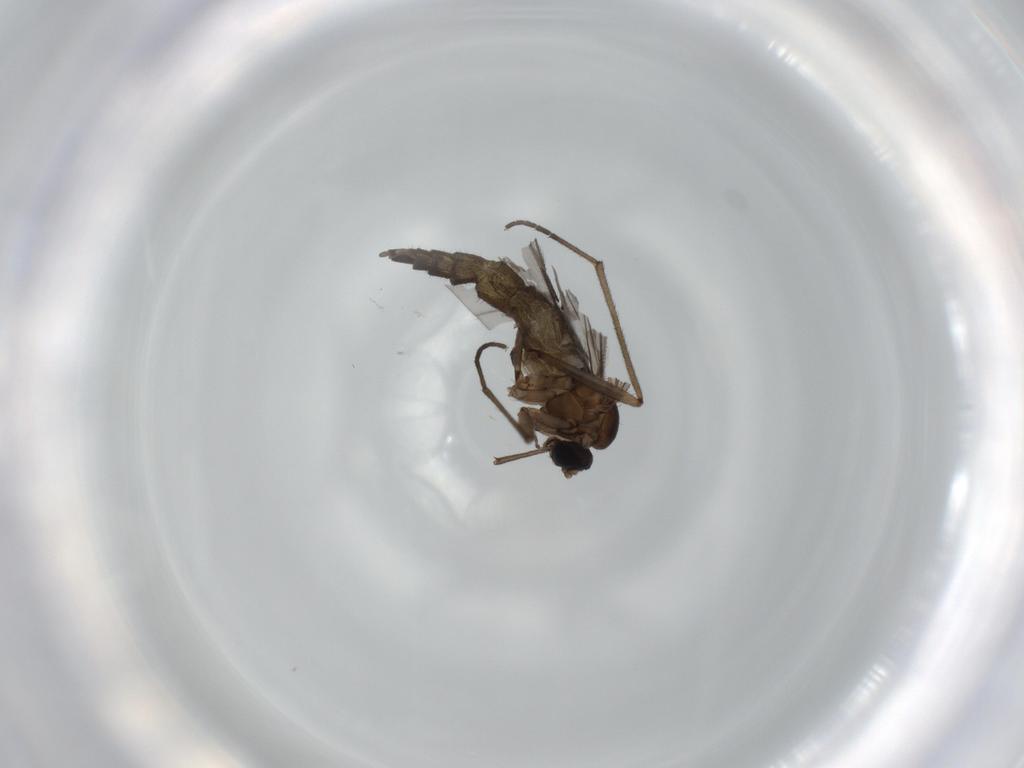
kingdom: Animalia
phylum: Arthropoda
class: Insecta
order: Diptera
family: Sciaridae
